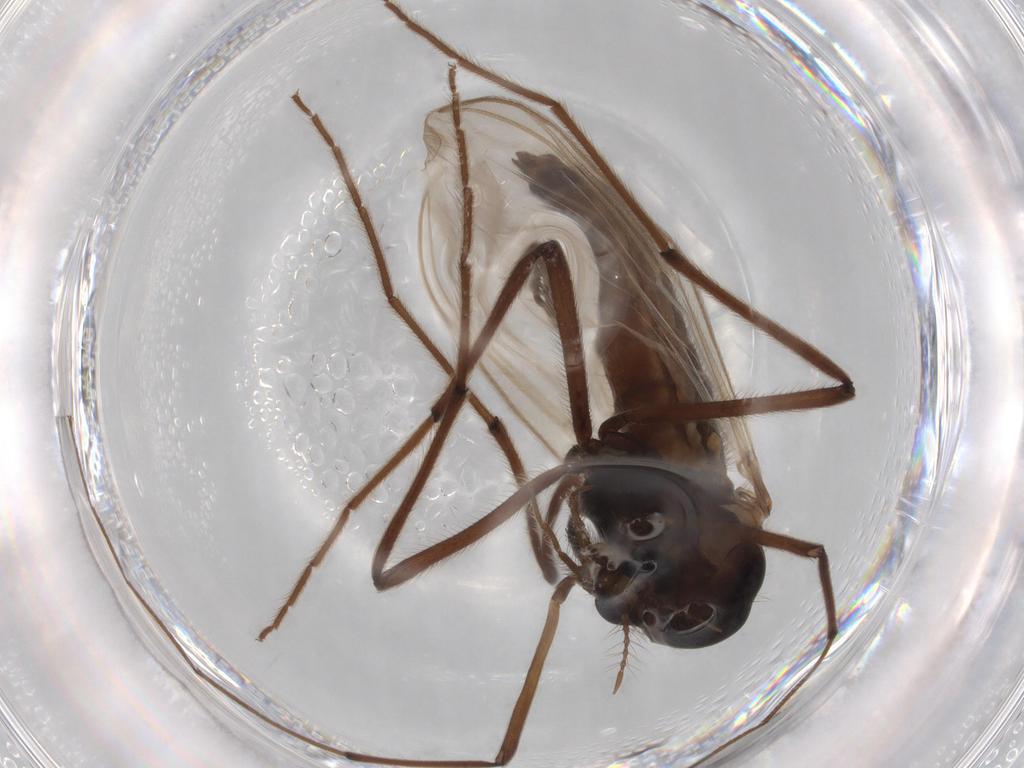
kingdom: Animalia
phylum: Arthropoda
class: Insecta
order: Diptera
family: Chironomidae
